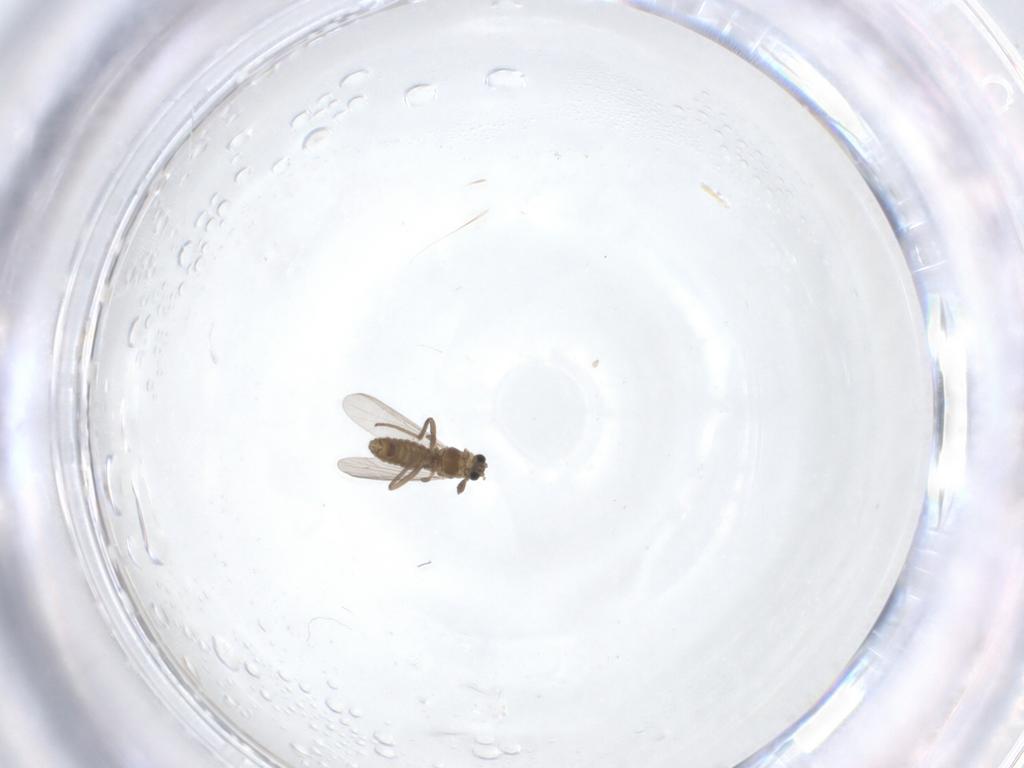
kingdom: Animalia
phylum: Arthropoda
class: Insecta
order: Diptera
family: Chironomidae
